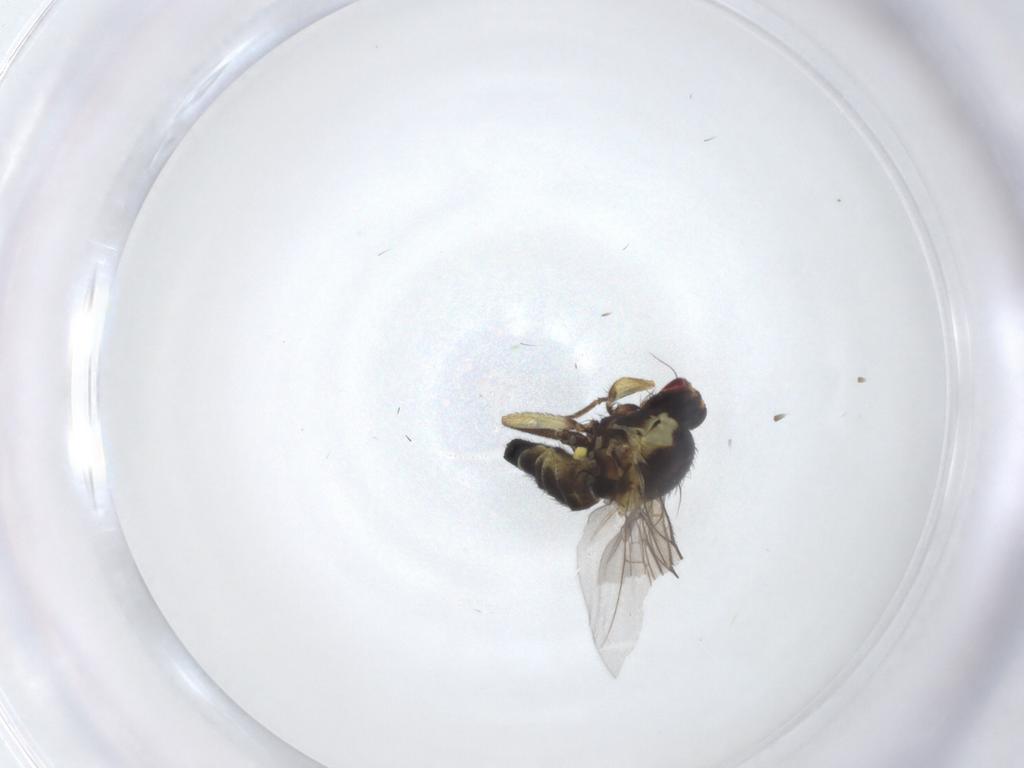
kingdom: Animalia
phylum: Arthropoda
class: Insecta
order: Diptera
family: Agromyzidae
